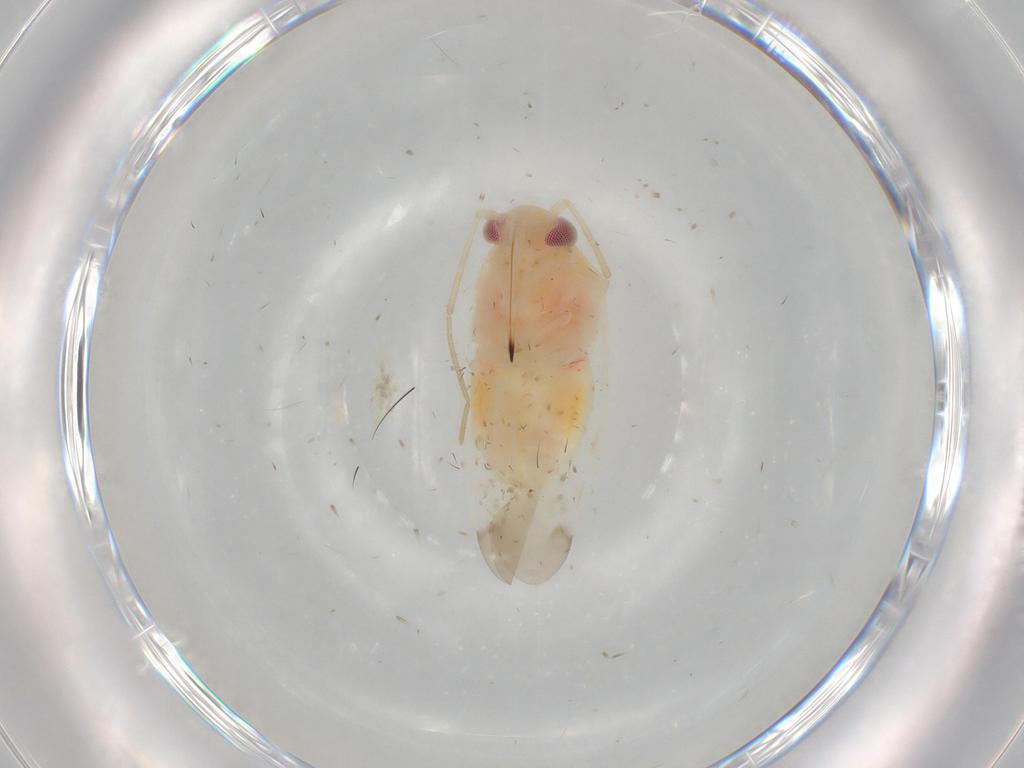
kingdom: Animalia
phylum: Arthropoda
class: Insecta
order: Hemiptera
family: Miridae
